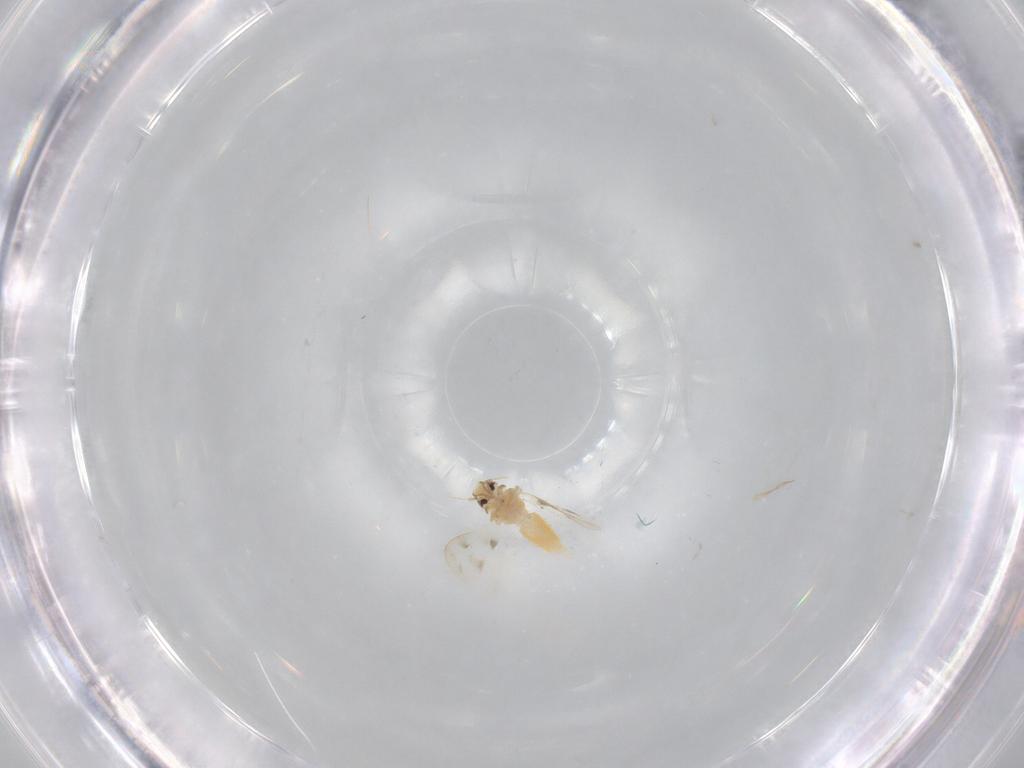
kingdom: Animalia
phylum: Arthropoda
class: Insecta
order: Hemiptera
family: Aleyrodidae
